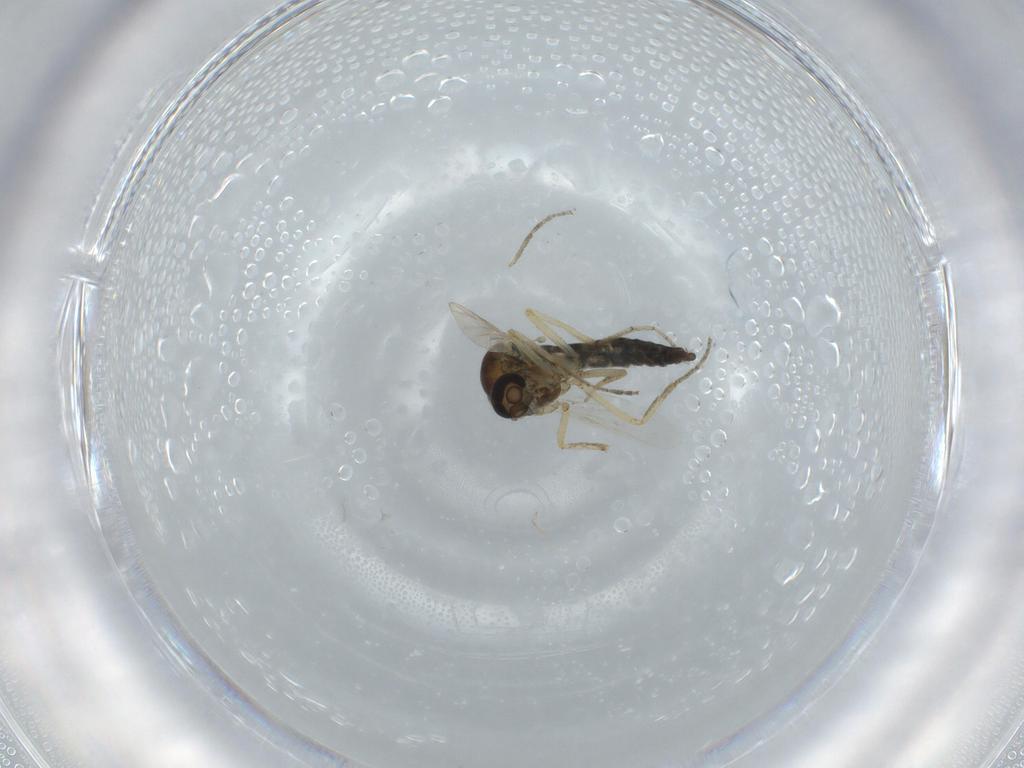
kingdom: Animalia
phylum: Arthropoda
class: Insecta
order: Diptera
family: Ceratopogonidae
